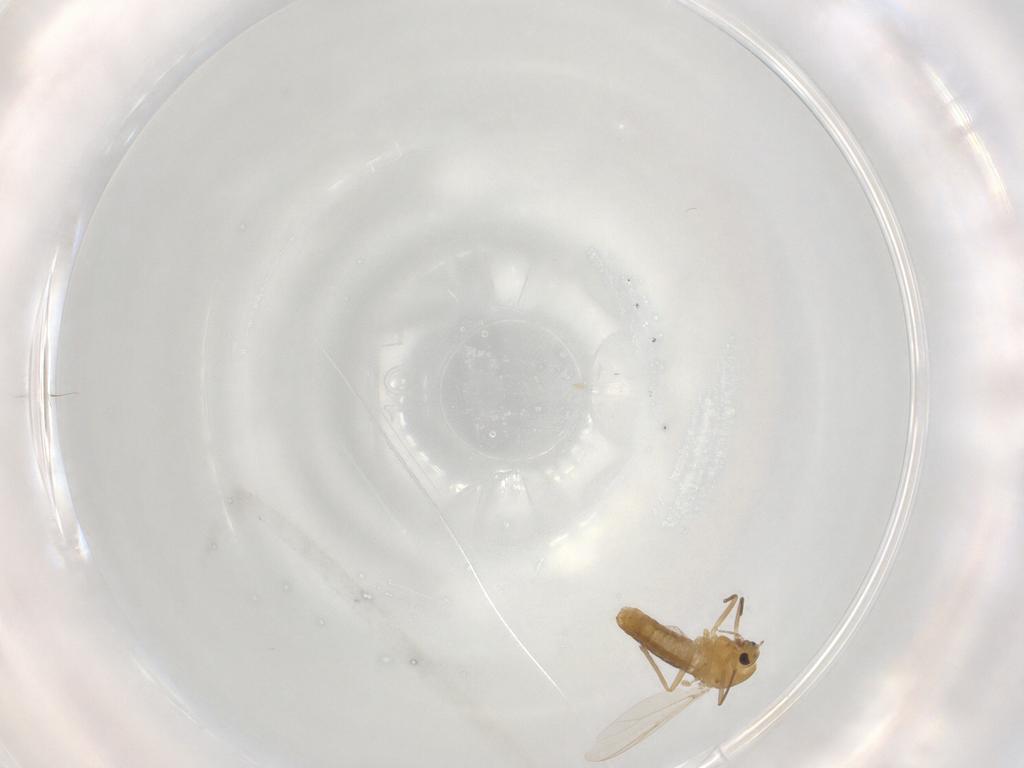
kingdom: Animalia
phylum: Arthropoda
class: Insecta
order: Diptera
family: Chironomidae
